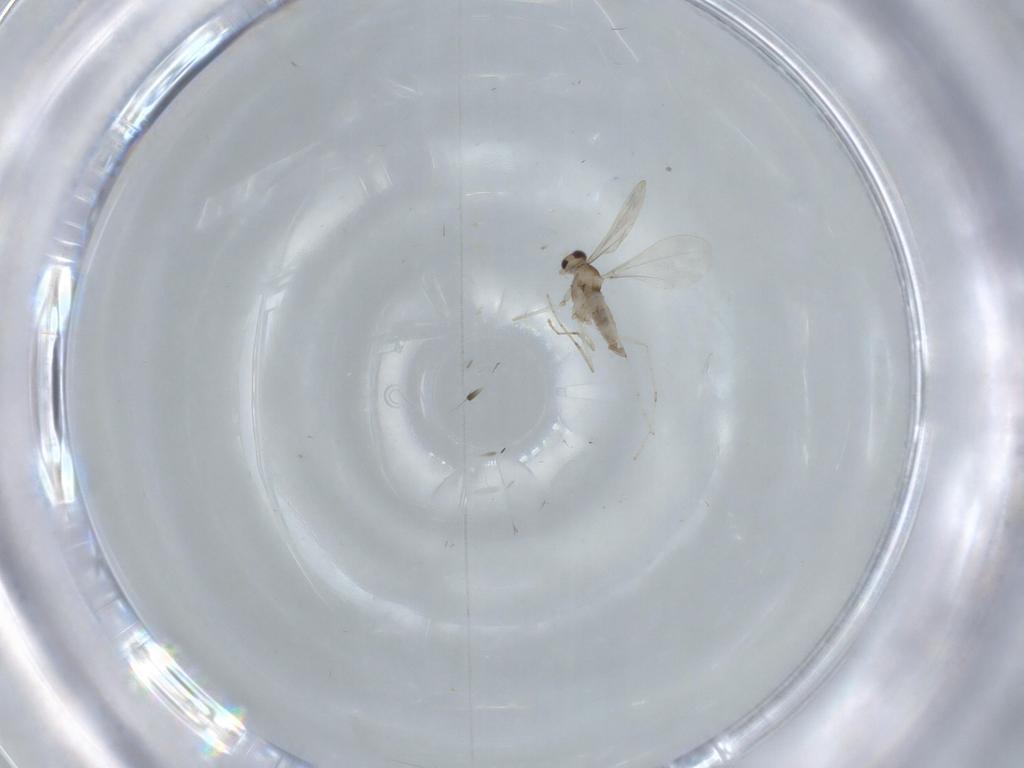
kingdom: Animalia
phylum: Arthropoda
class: Insecta
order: Diptera
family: Cecidomyiidae
